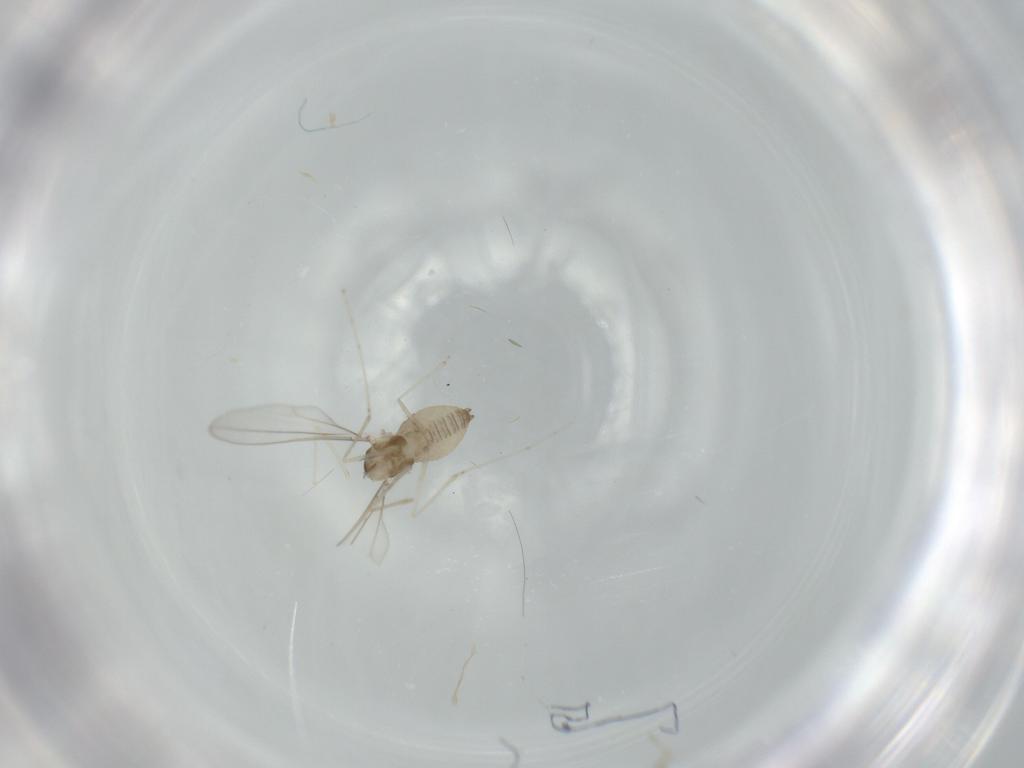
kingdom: Animalia
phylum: Arthropoda
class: Insecta
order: Diptera
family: Cecidomyiidae
